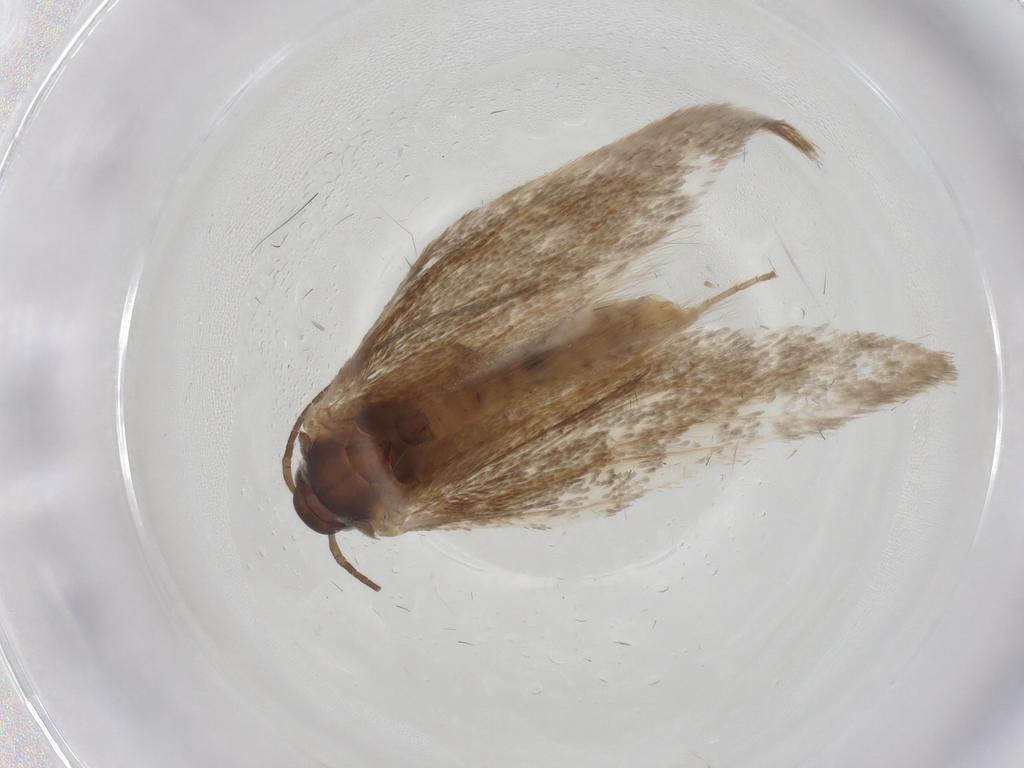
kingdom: Animalia
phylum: Arthropoda
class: Insecta
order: Lepidoptera
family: Elachistidae
